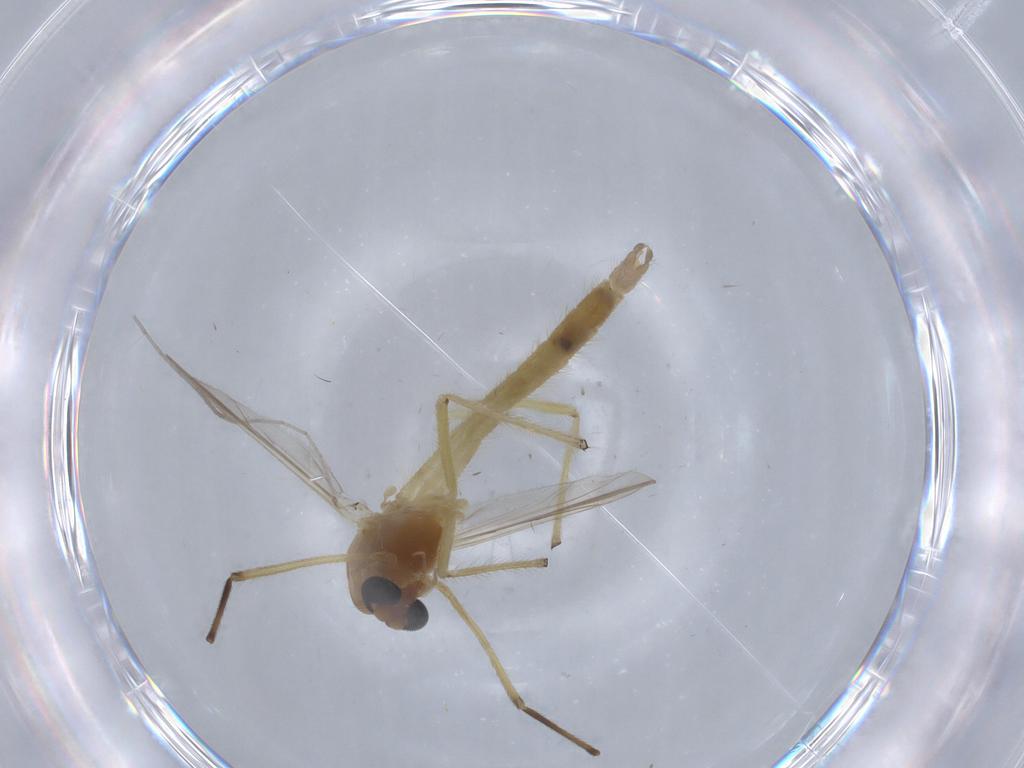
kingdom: Animalia
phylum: Arthropoda
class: Insecta
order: Diptera
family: Chironomidae
